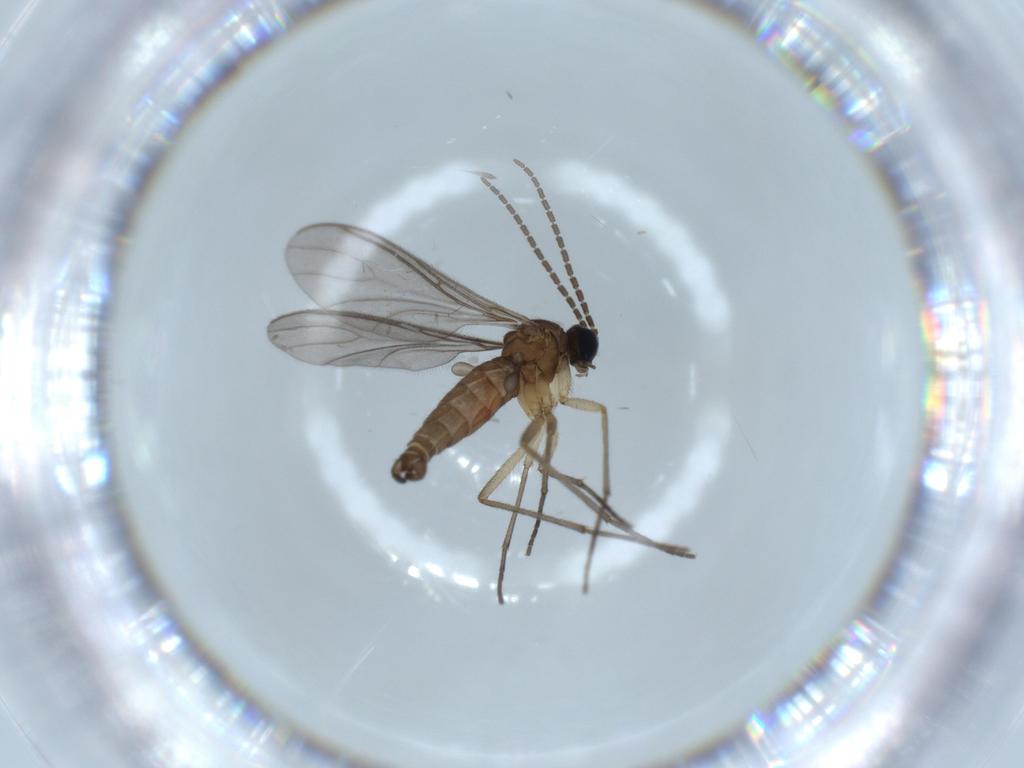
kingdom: Animalia
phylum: Arthropoda
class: Insecta
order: Diptera
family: Sciaridae
